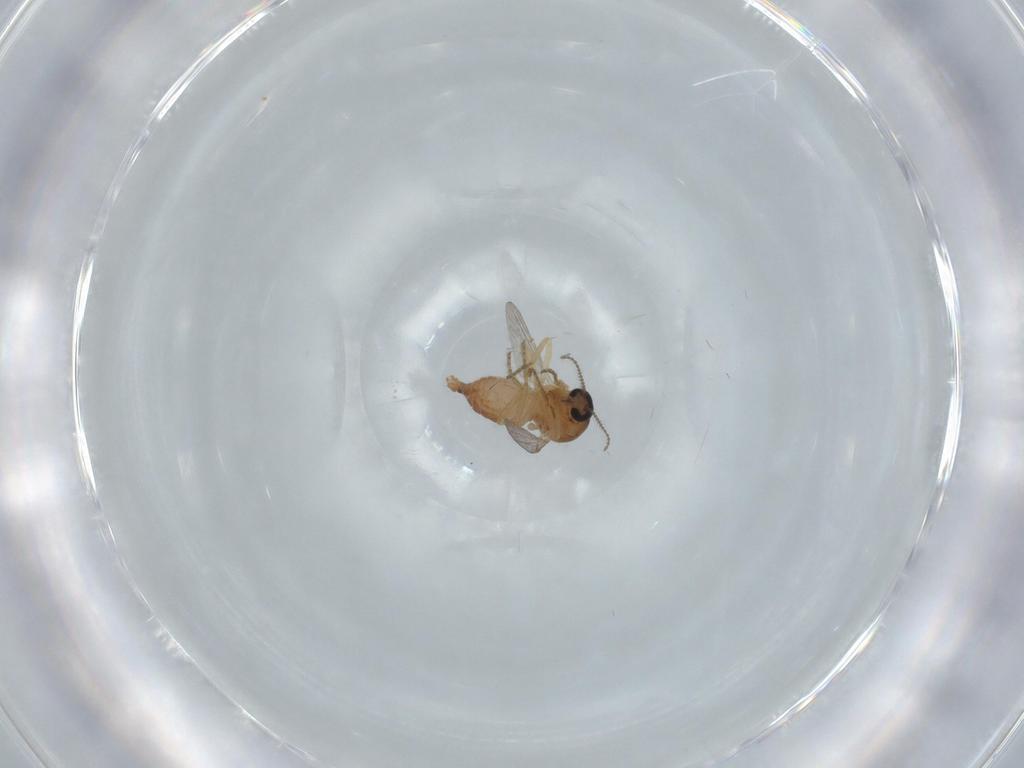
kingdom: Animalia
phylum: Arthropoda
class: Insecta
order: Diptera
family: Ceratopogonidae
